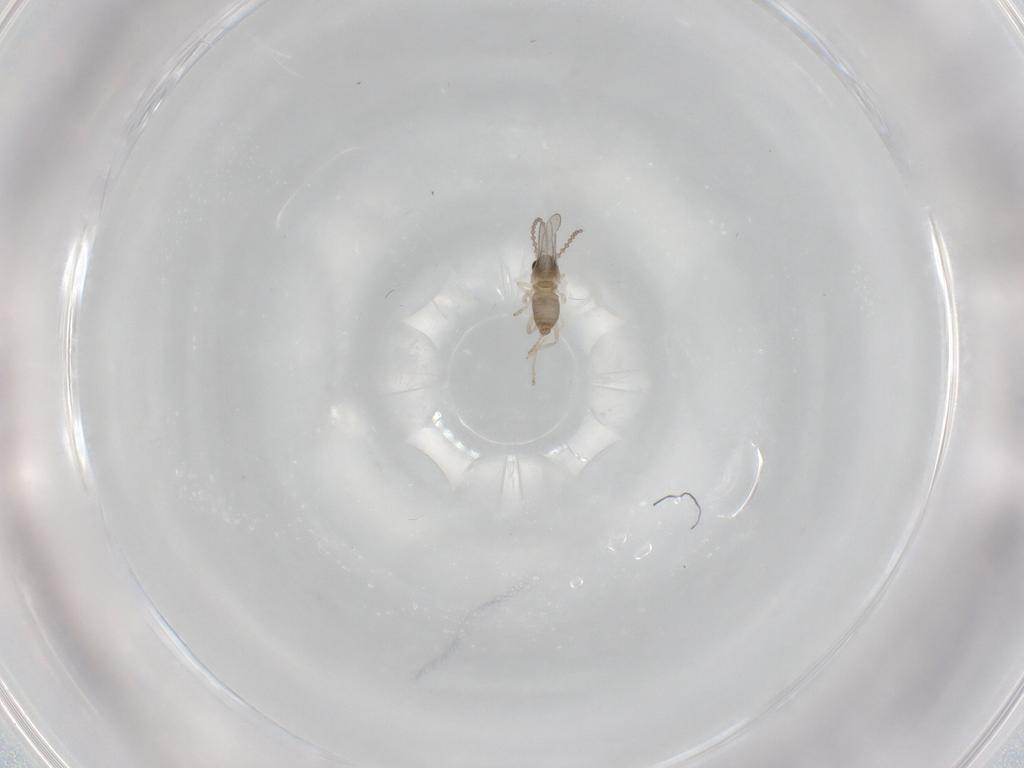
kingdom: Animalia
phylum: Arthropoda
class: Insecta
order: Diptera
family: Cecidomyiidae
